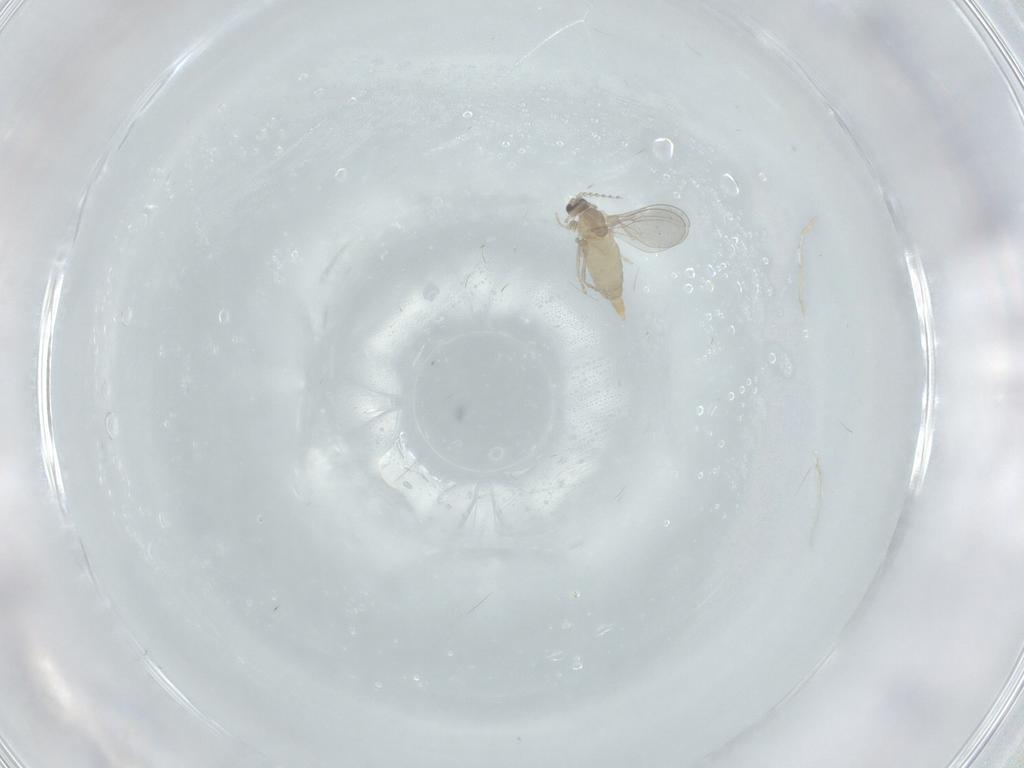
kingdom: Animalia
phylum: Arthropoda
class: Insecta
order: Diptera
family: Cecidomyiidae
